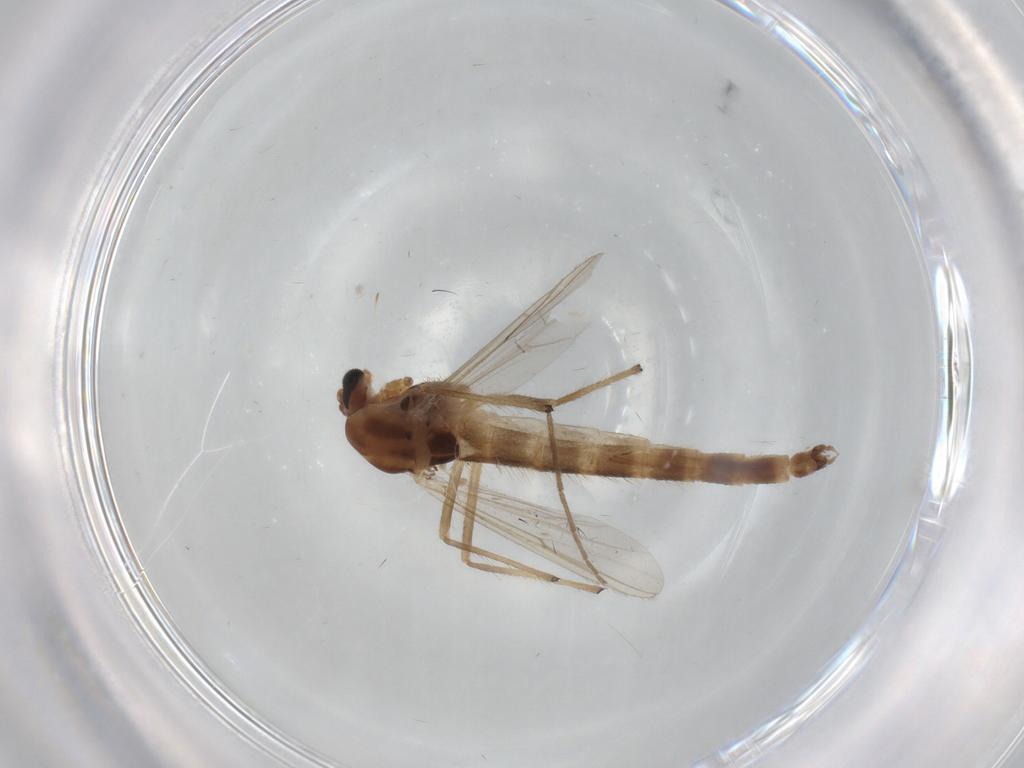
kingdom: Animalia
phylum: Arthropoda
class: Insecta
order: Diptera
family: Chironomidae
